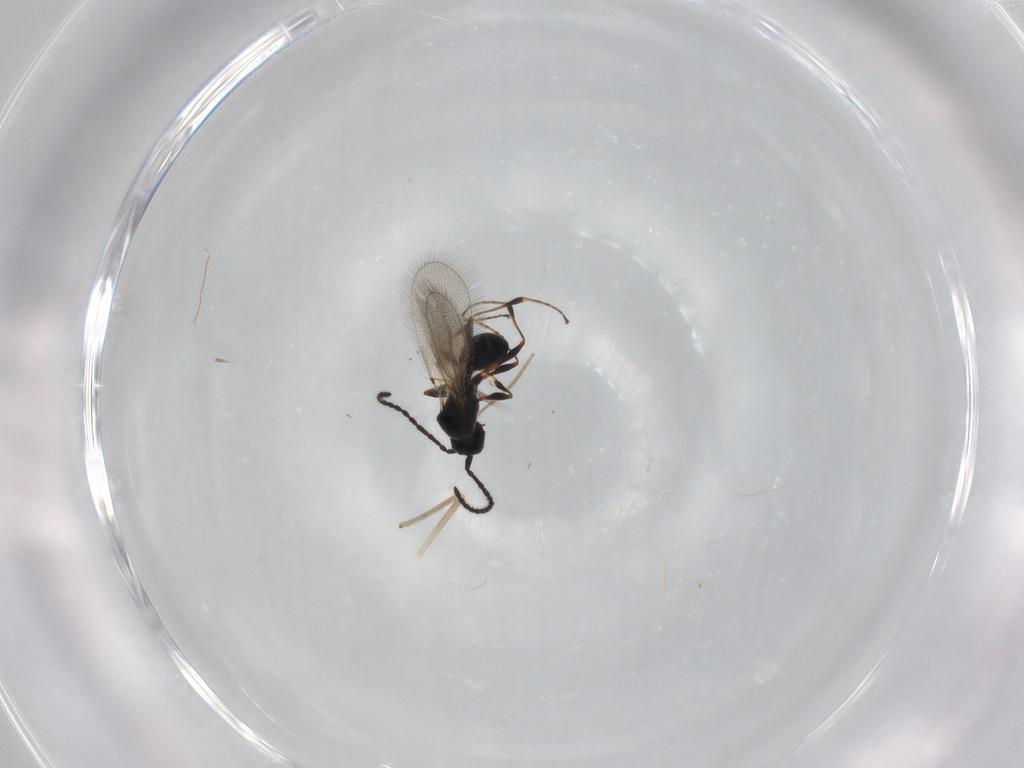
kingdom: Animalia
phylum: Arthropoda
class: Insecta
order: Hymenoptera
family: Diapriidae
